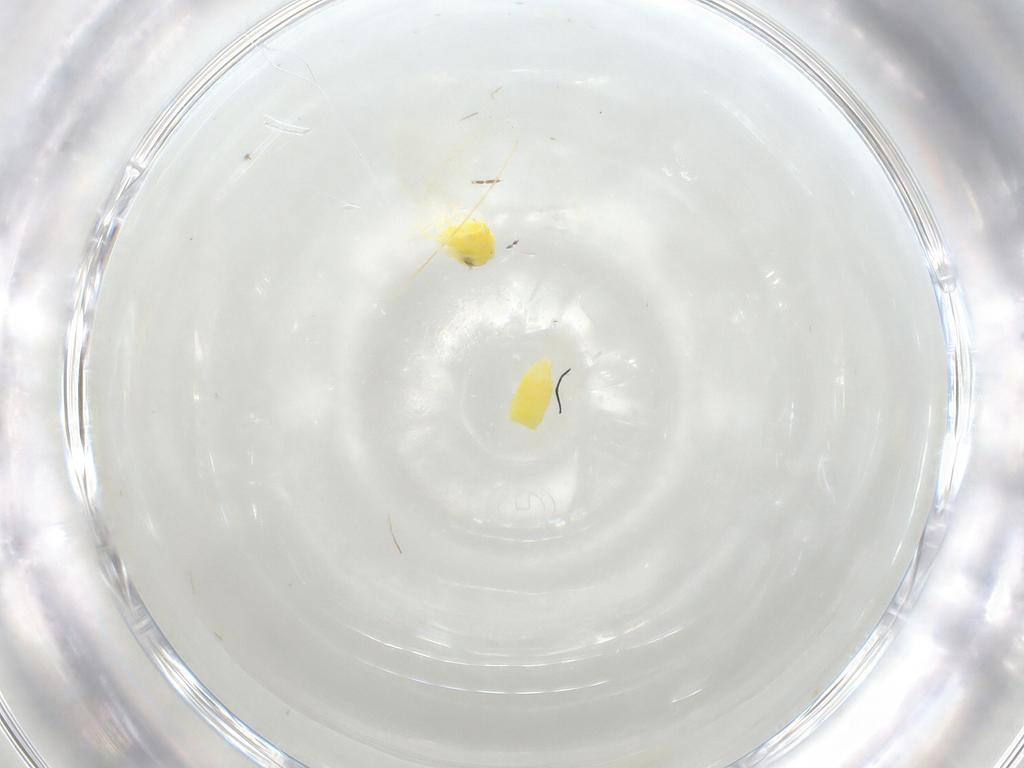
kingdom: Animalia
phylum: Arthropoda
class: Insecta
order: Hemiptera
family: Aleyrodidae
